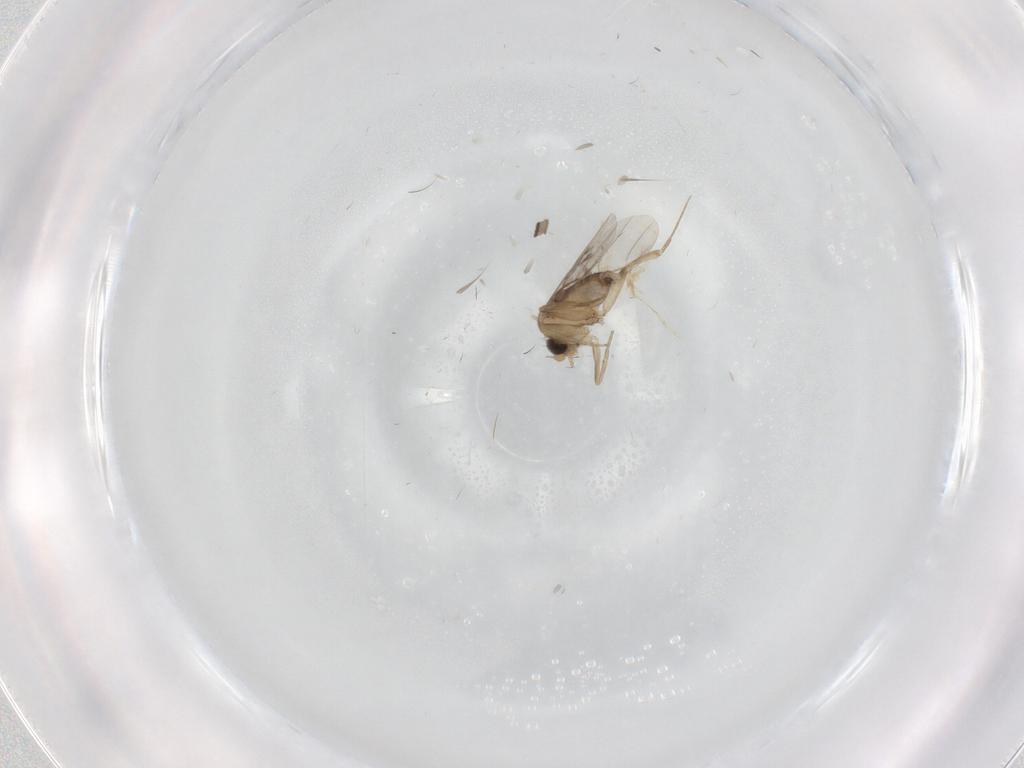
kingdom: Animalia
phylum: Arthropoda
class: Insecta
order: Diptera
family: Phoridae
